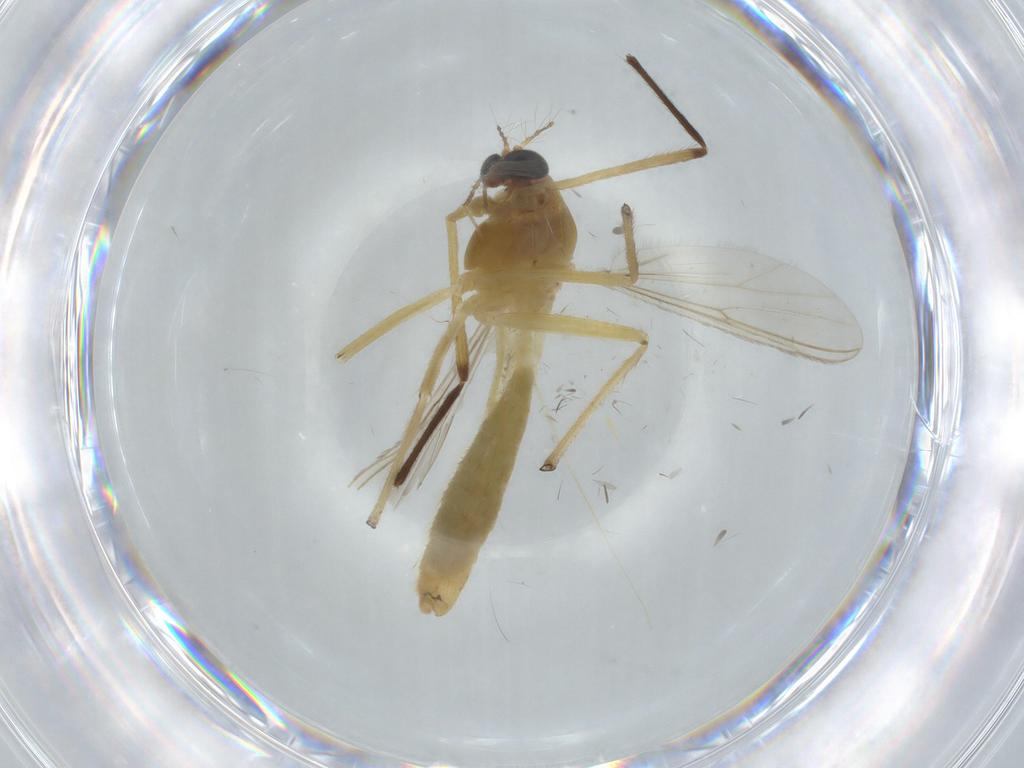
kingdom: Animalia
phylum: Arthropoda
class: Insecta
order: Diptera
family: Chironomidae
